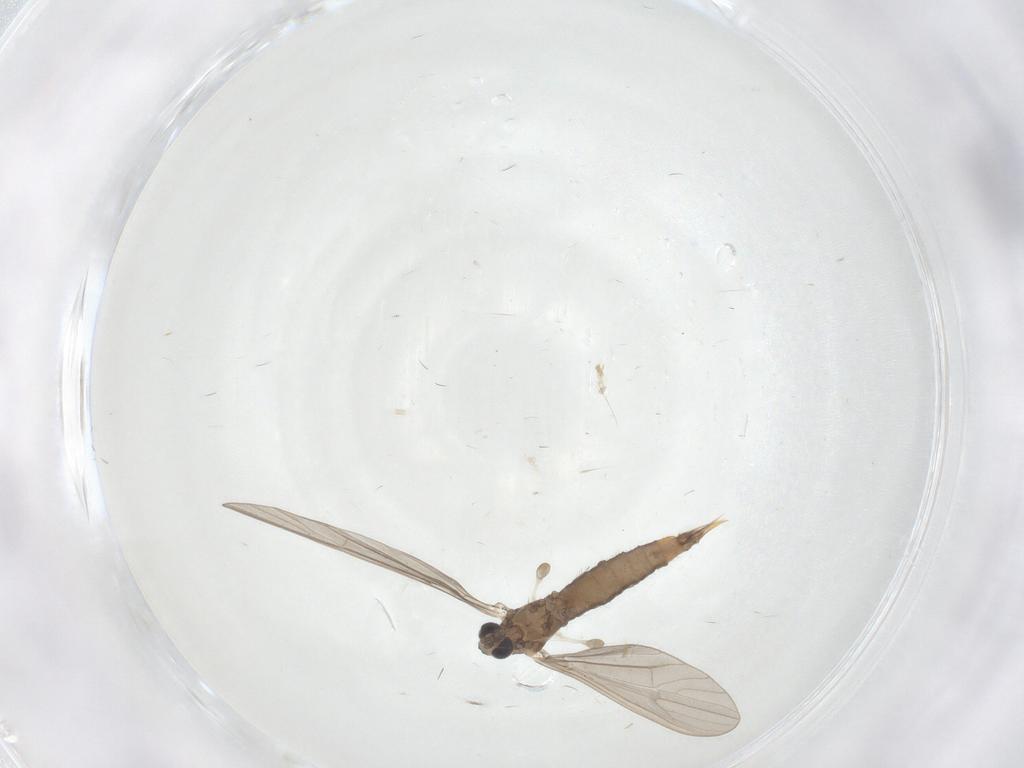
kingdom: Animalia
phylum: Arthropoda
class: Insecta
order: Diptera
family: Limoniidae
